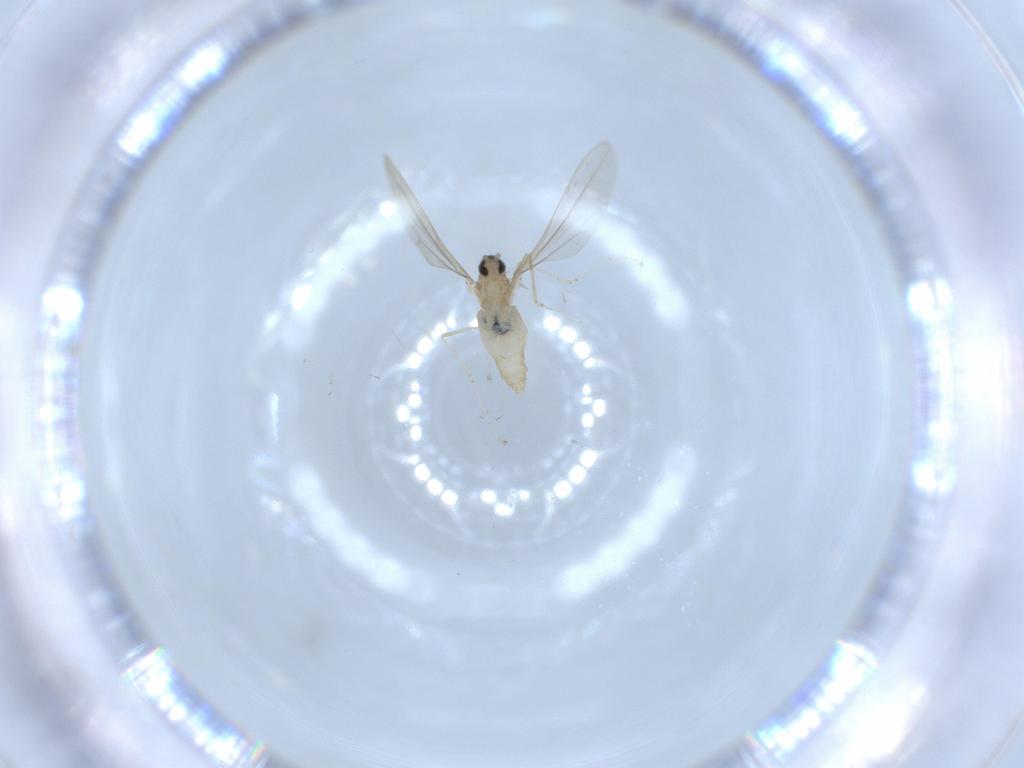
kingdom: Animalia
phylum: Arthropoda
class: Insecta
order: Diptera
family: Cecidomyiidae
